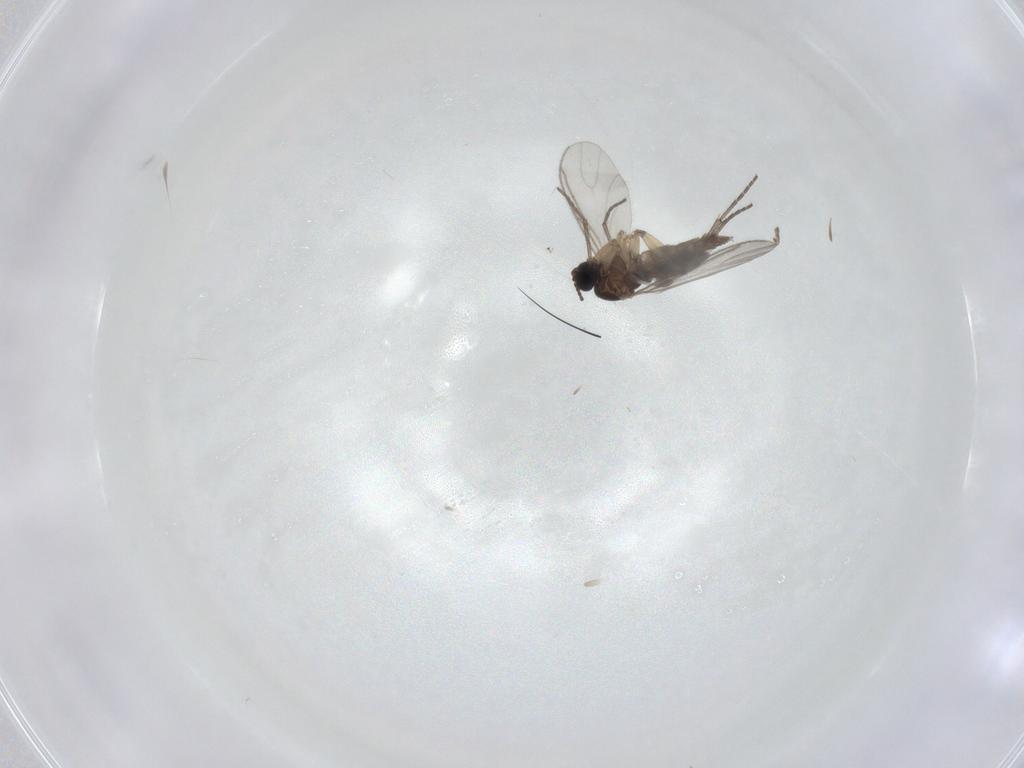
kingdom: Animalia
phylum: Arthropoda
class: Insecta
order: Diptera
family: Sciaridae
